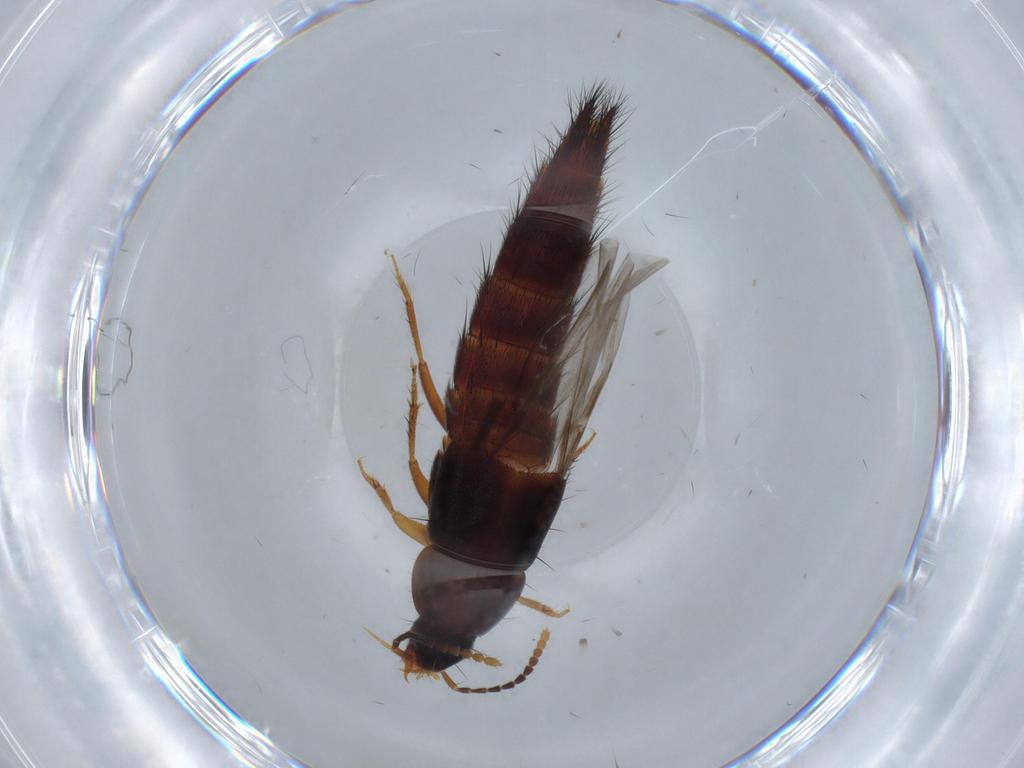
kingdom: Animalia
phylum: Arthropoda
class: Insecta
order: Coleoptera
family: Staphylinidae
